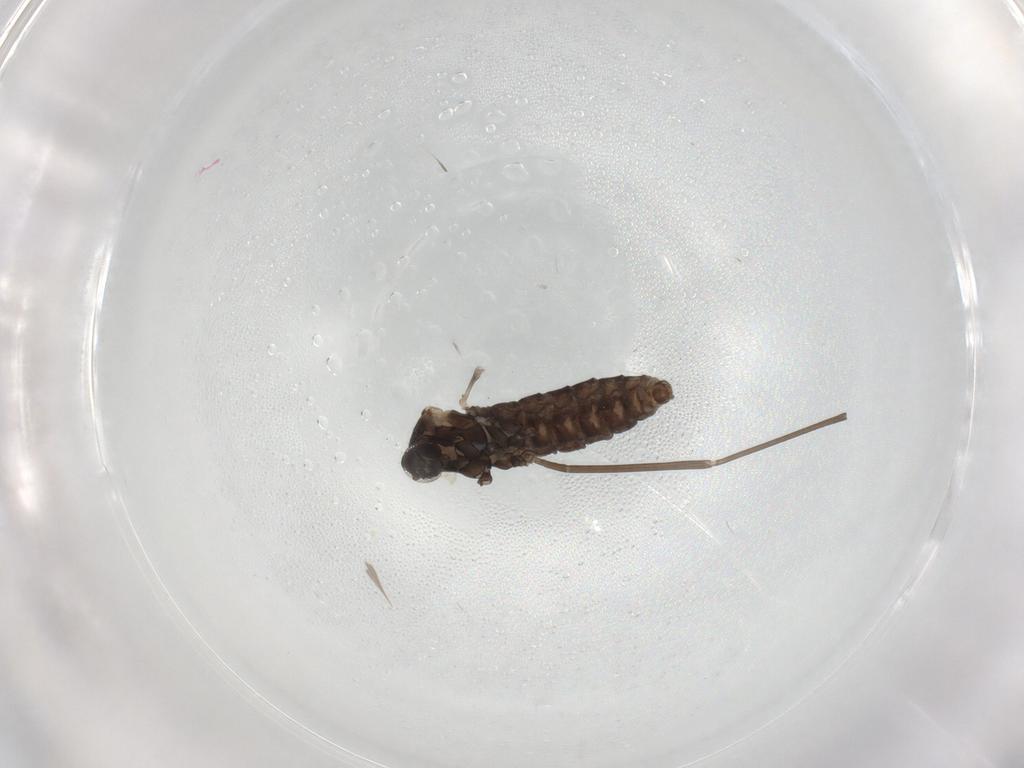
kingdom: Animalia
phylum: Arthropoda
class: Insecta
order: Diptera
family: Cecidomyiidae
